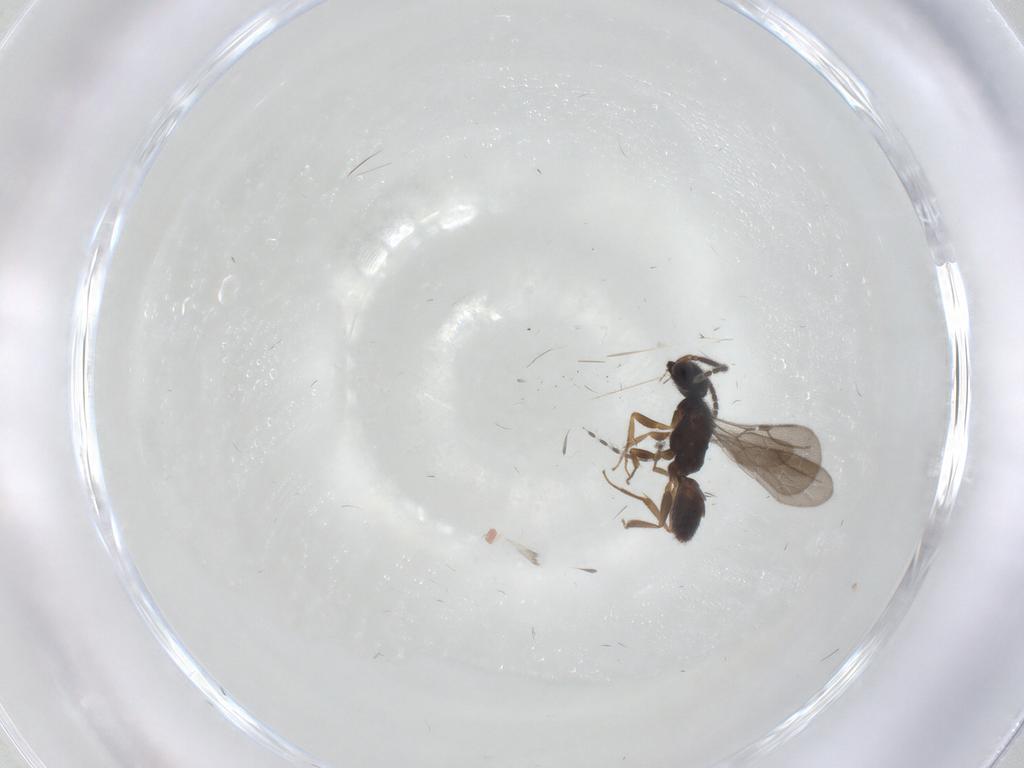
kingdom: Animalia
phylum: Arthropoda
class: Insecta
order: Hymenoptera
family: Bethylidae
